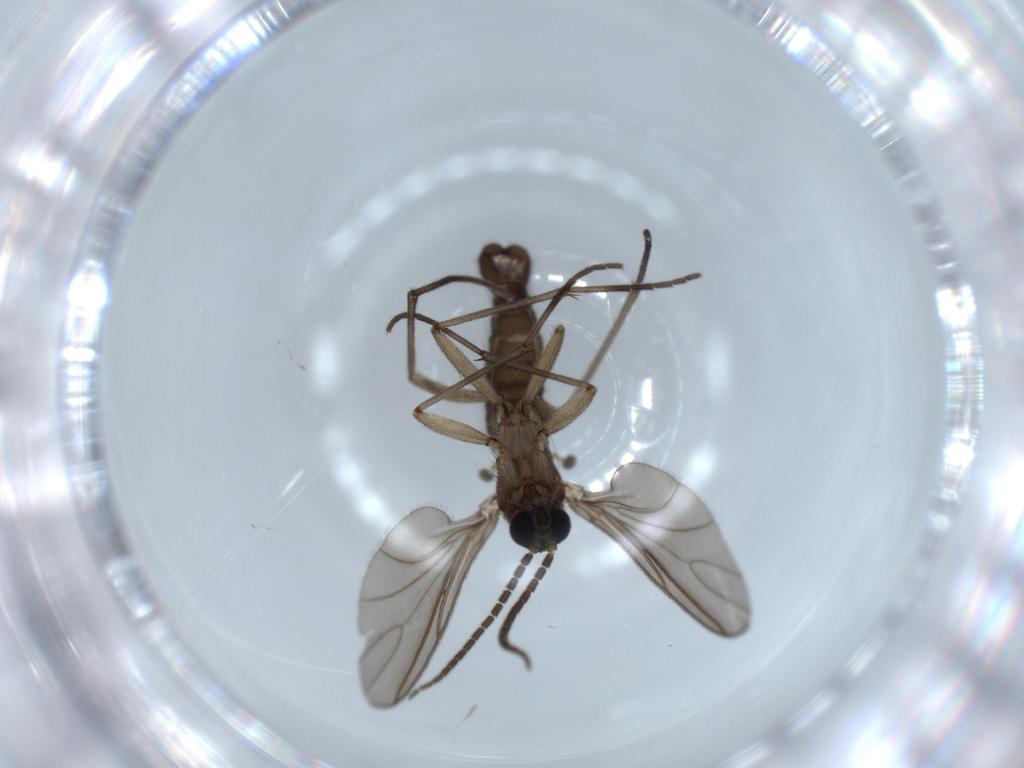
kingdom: Animalia
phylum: Arthropoda
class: Insecta
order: Diptera
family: Sciaridae
